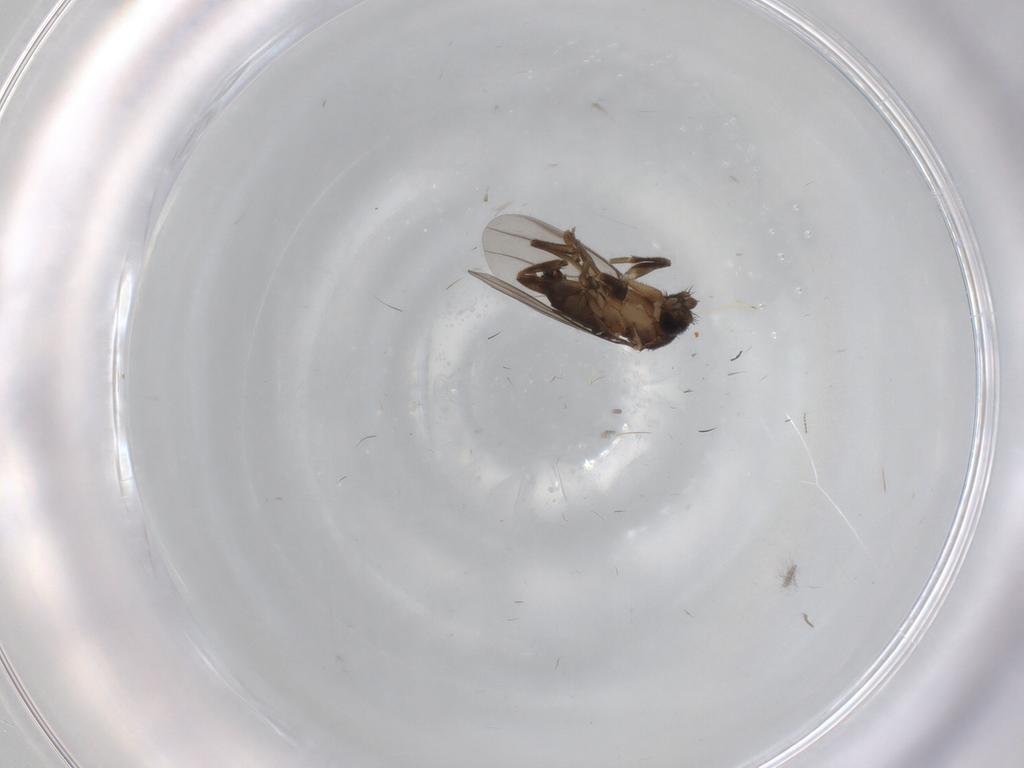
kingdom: Animalia
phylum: Arthropoda
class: Insecta
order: Diptera
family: Chironomidae
